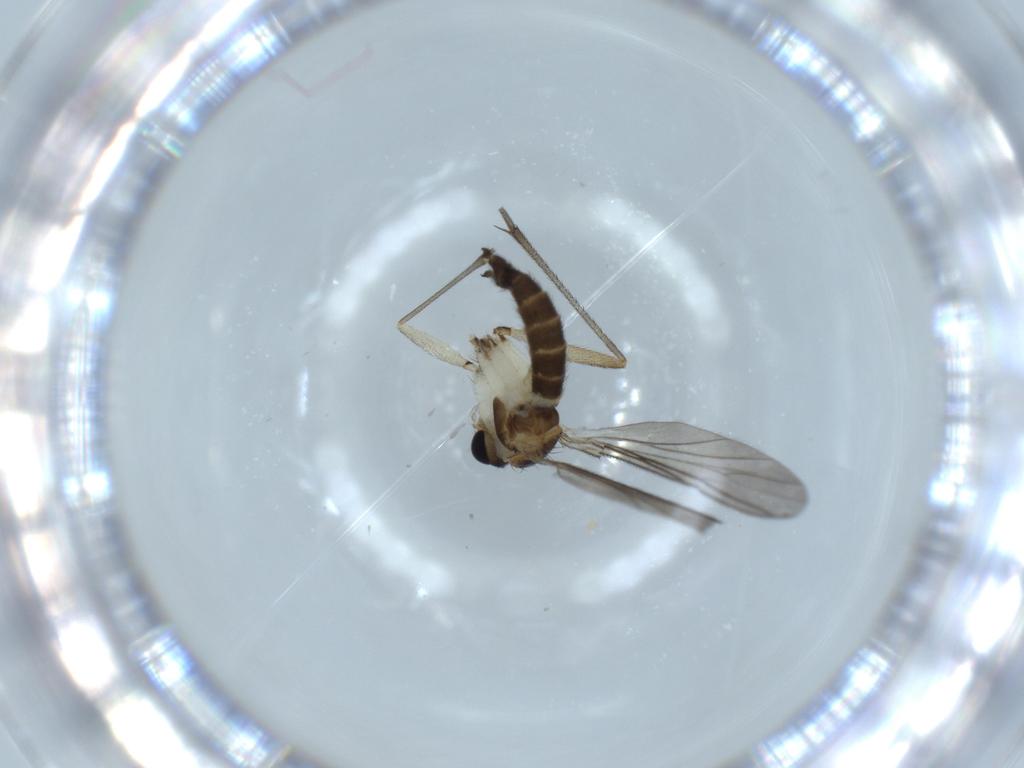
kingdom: Animalia
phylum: Arthropoda
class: Insecta
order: Diptera
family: Sciaridae
